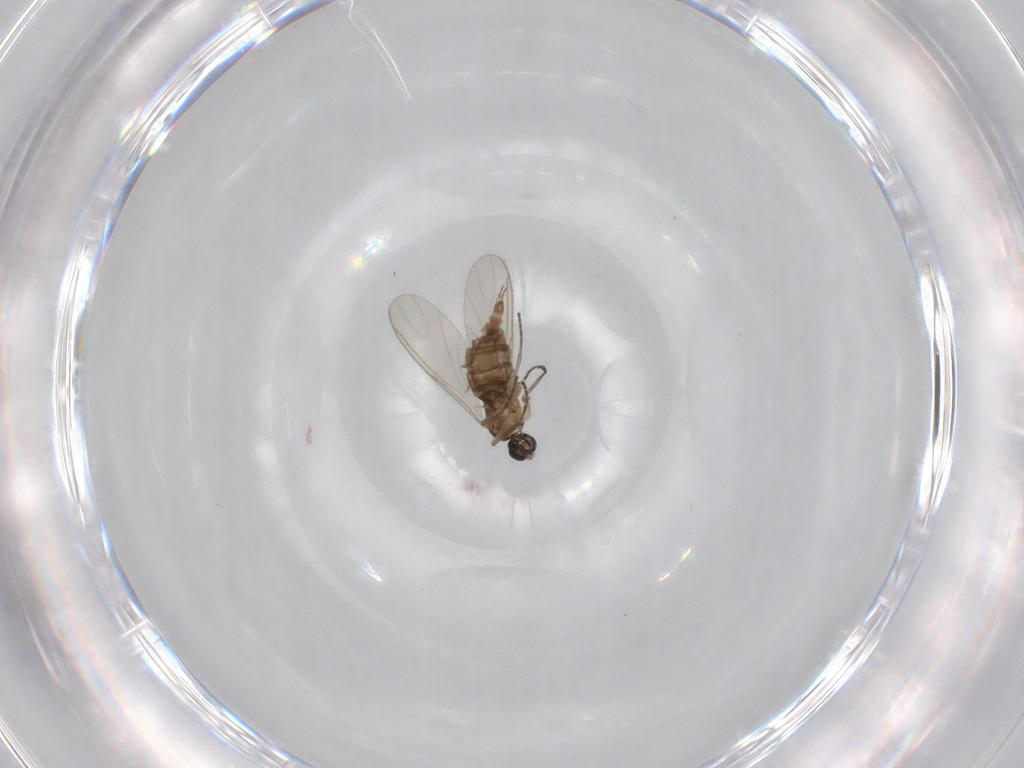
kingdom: Animalia
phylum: Arthropoda
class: Insecta
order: Diptera
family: Sciaridae
